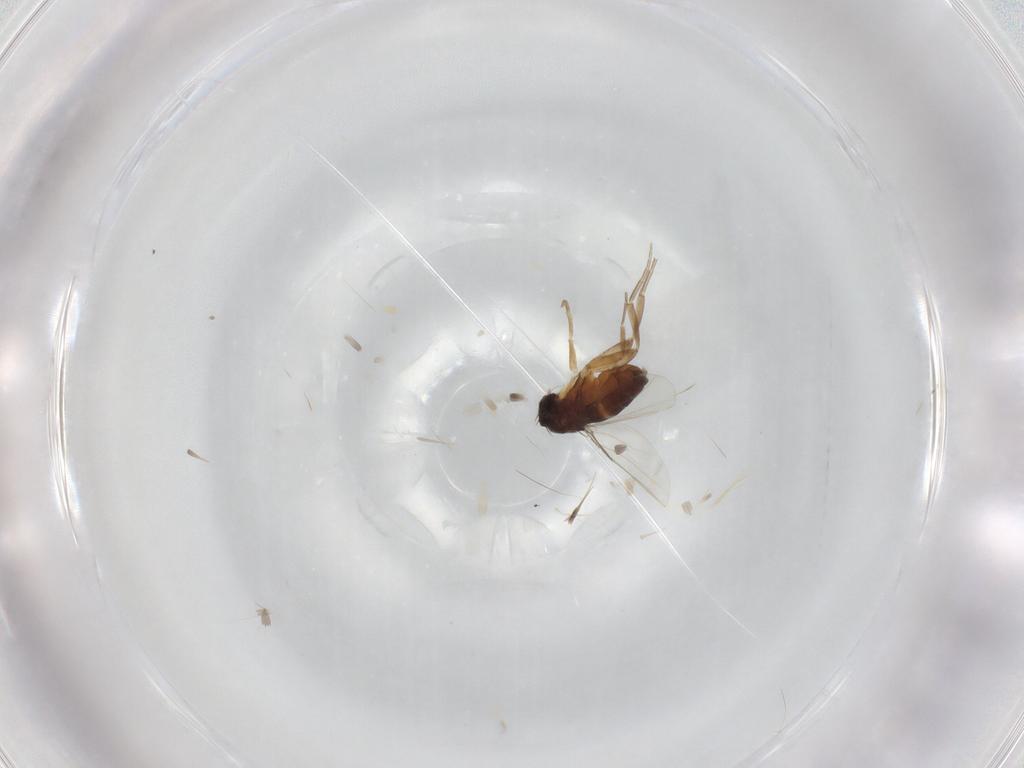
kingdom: Animalia
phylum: Arthropoda
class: Insecta
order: Diptera
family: Phoridae
